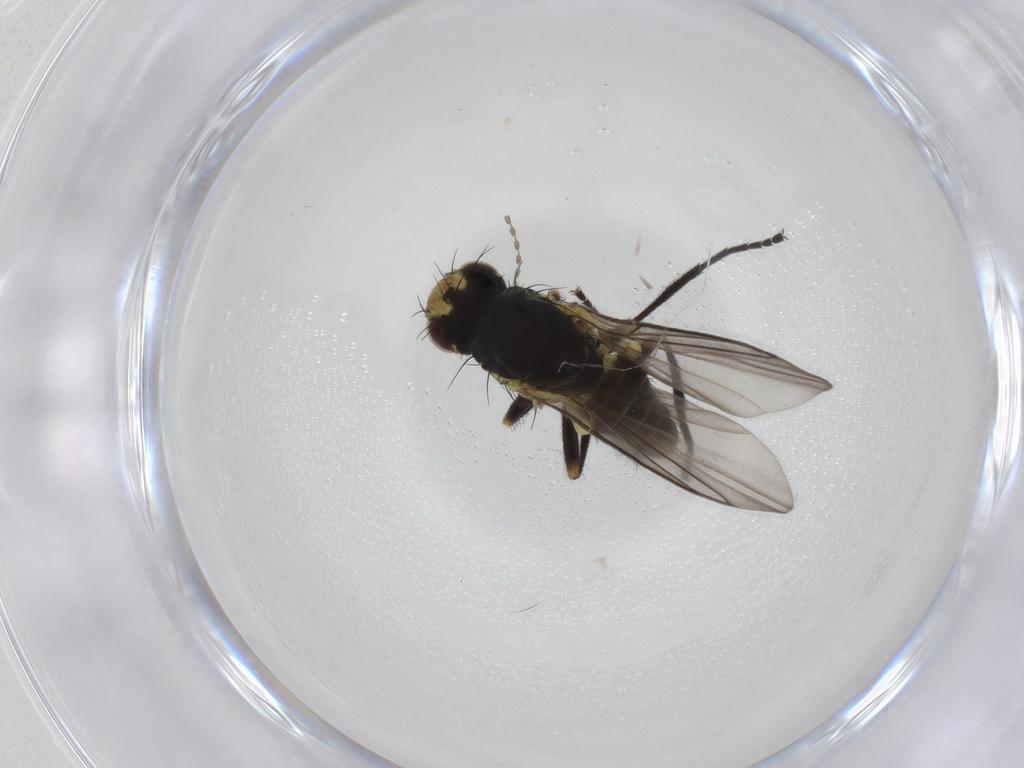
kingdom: Animalia
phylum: Arthropoda
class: Insecta
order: Diptera
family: Agromyzidae
